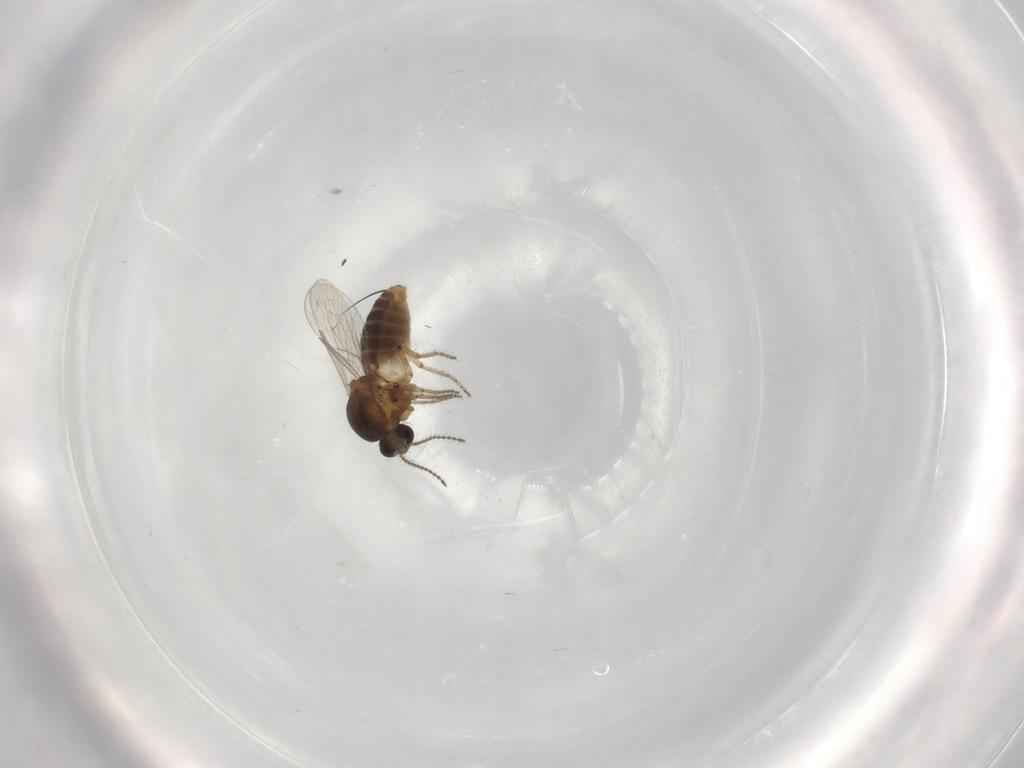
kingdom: Animalia
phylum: Arthropoda
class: Insecta
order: Diptera
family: Ceratopogonidae
